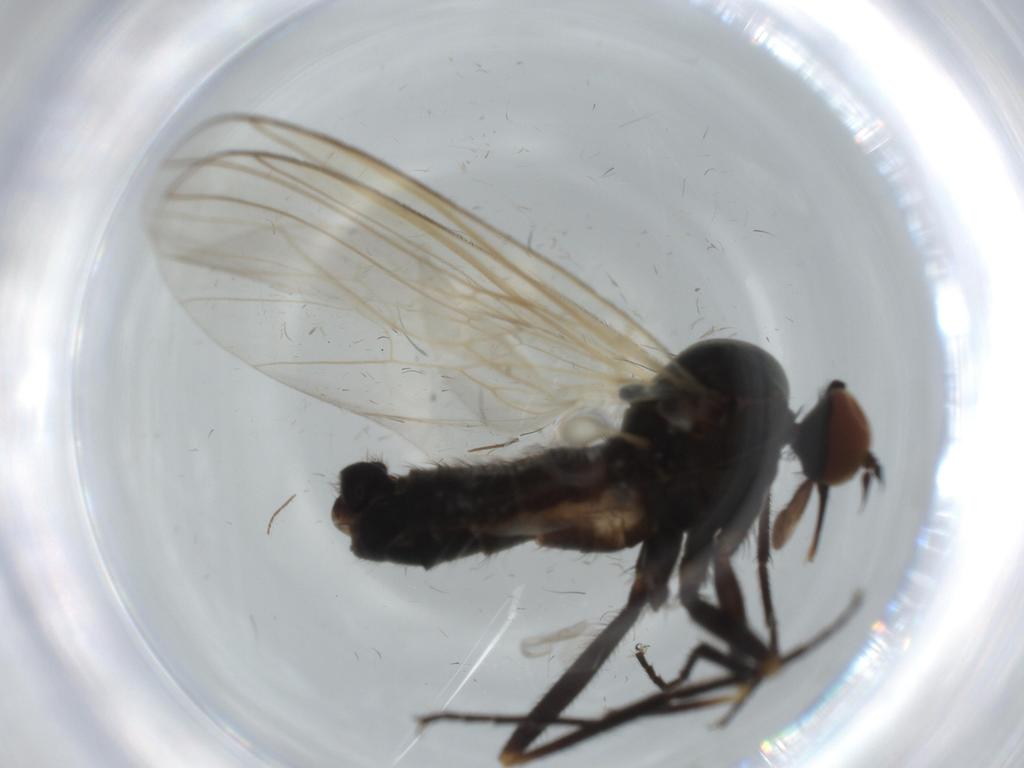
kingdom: Animalia
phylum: Arthropoda
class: Insecta
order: Diptera
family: Empididae
